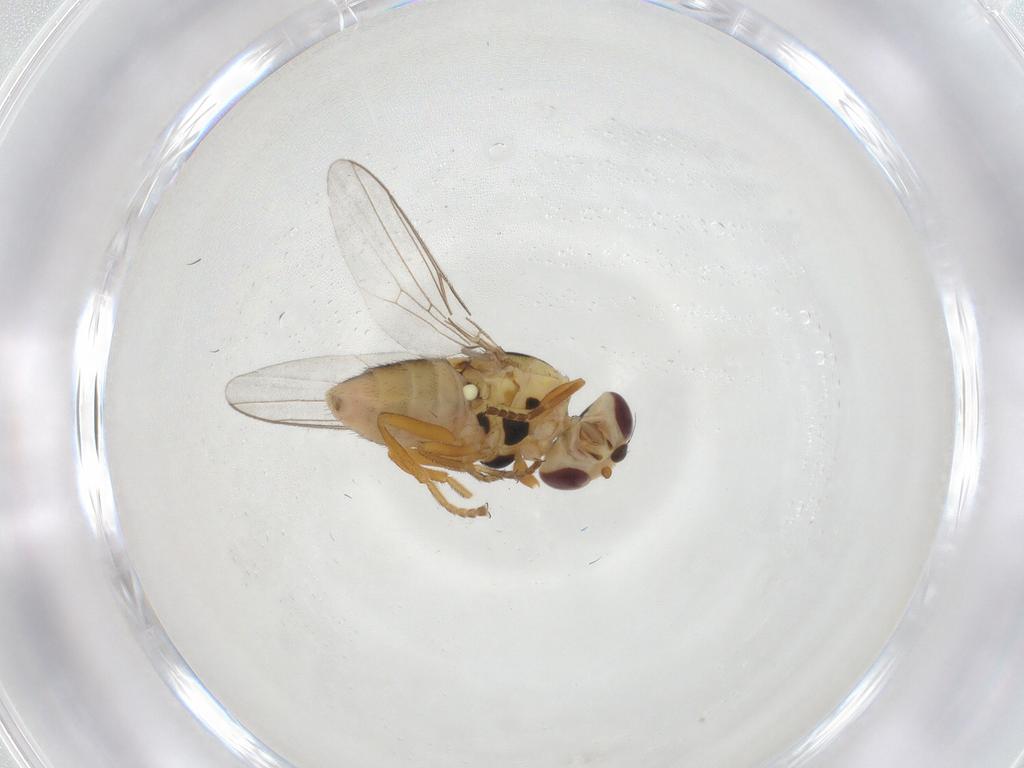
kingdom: Animalia
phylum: Arthropoda
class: Insecta
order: Diptera
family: Chloropidae
